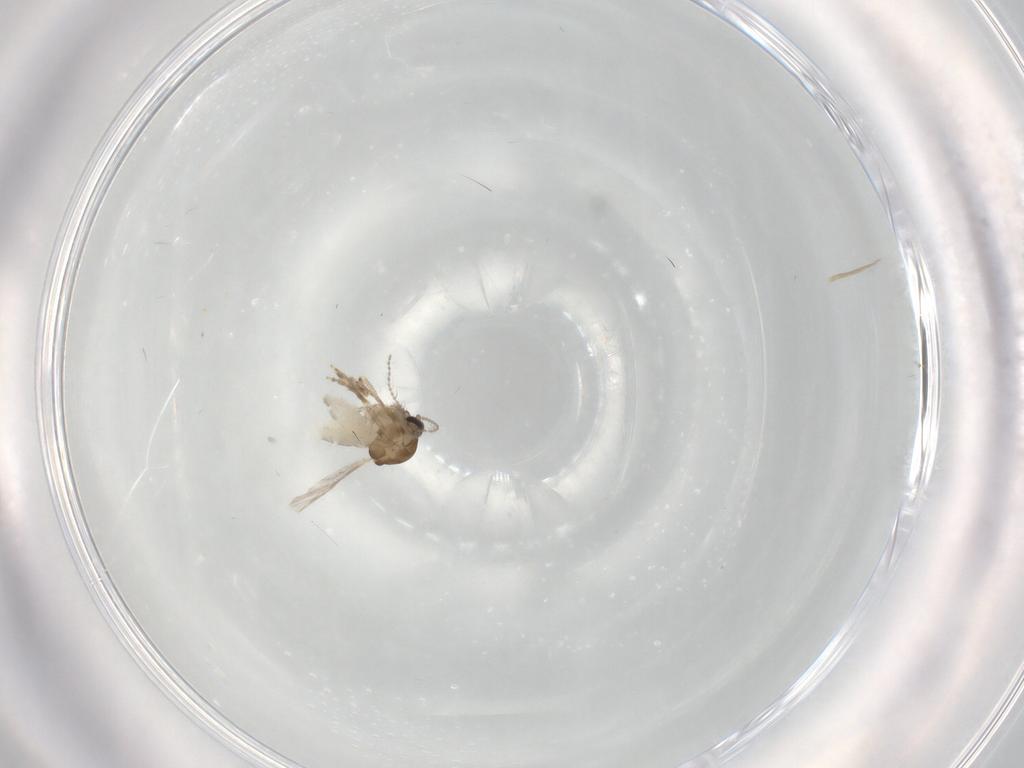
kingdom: Animalia
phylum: Arthropoda
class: Insecta
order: Diptera
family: Ceratopogonidae
